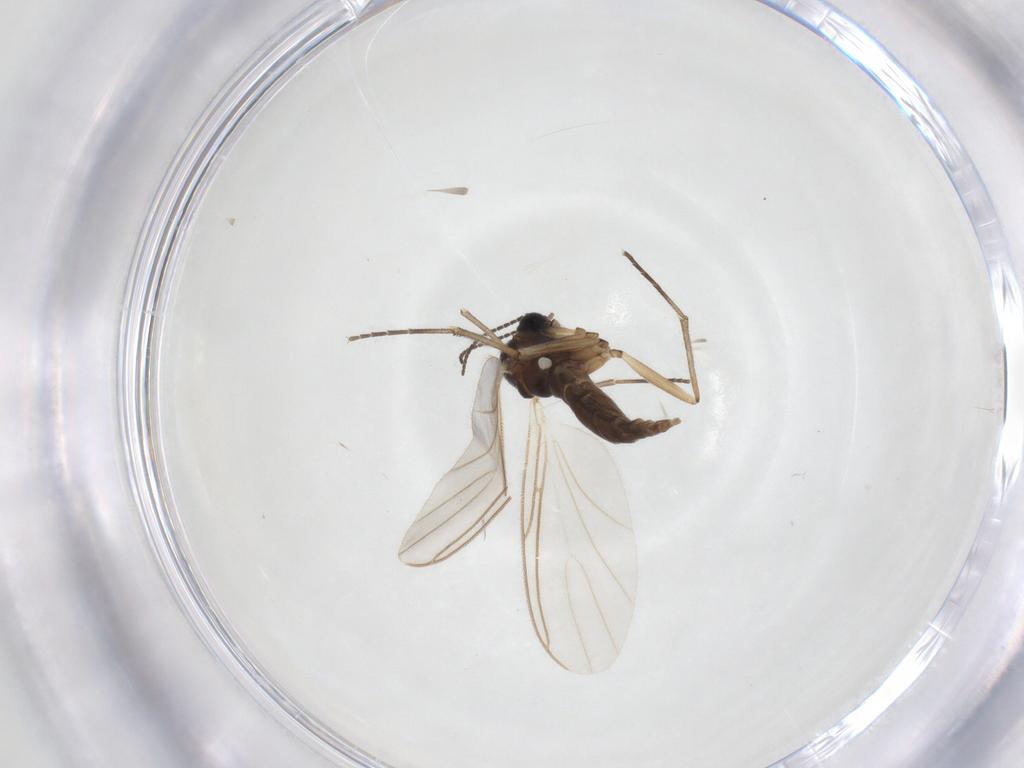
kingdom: Animalia
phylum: Arthropoda
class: Insecta
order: Diptera
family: Sciaridae
